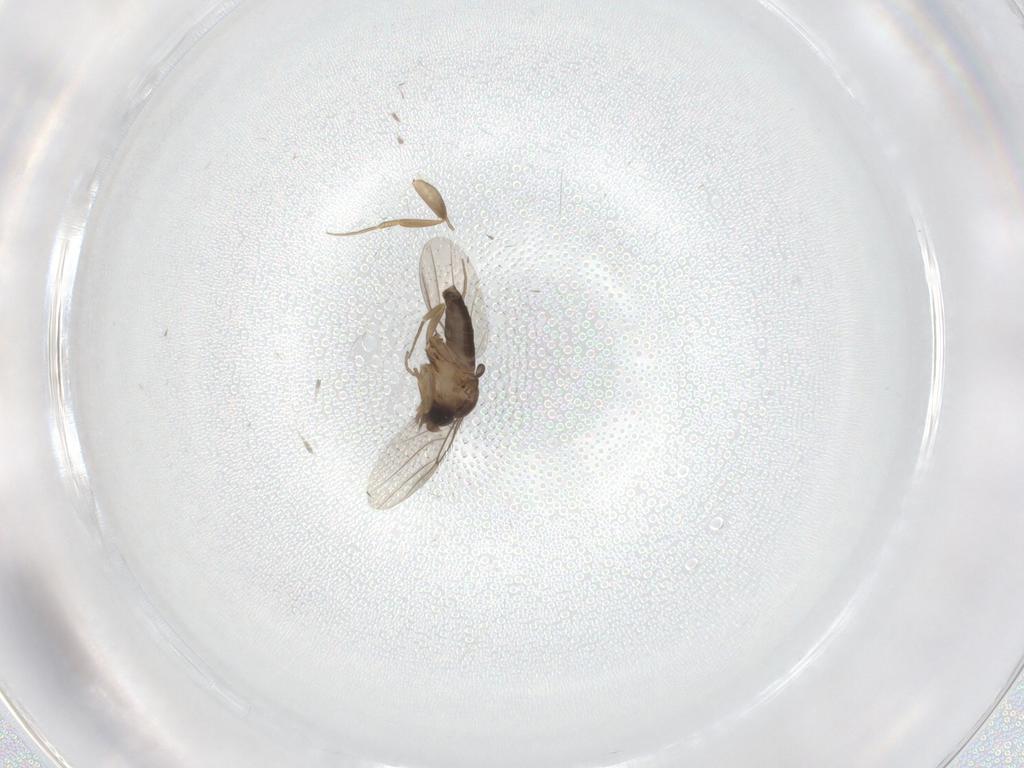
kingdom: Animalia
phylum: Arthropoda
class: Insecta
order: Diptera
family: Phoridae
